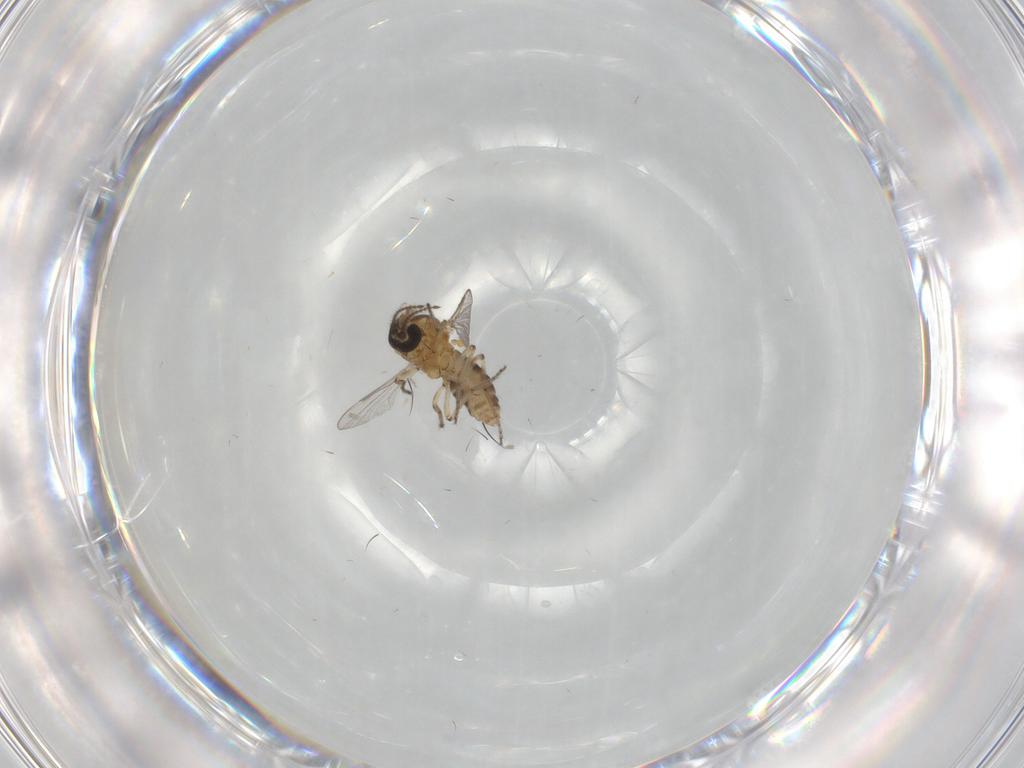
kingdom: Animalia
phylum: Arthropoda
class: Insecta
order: Diptera
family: Ceratopogonidae
